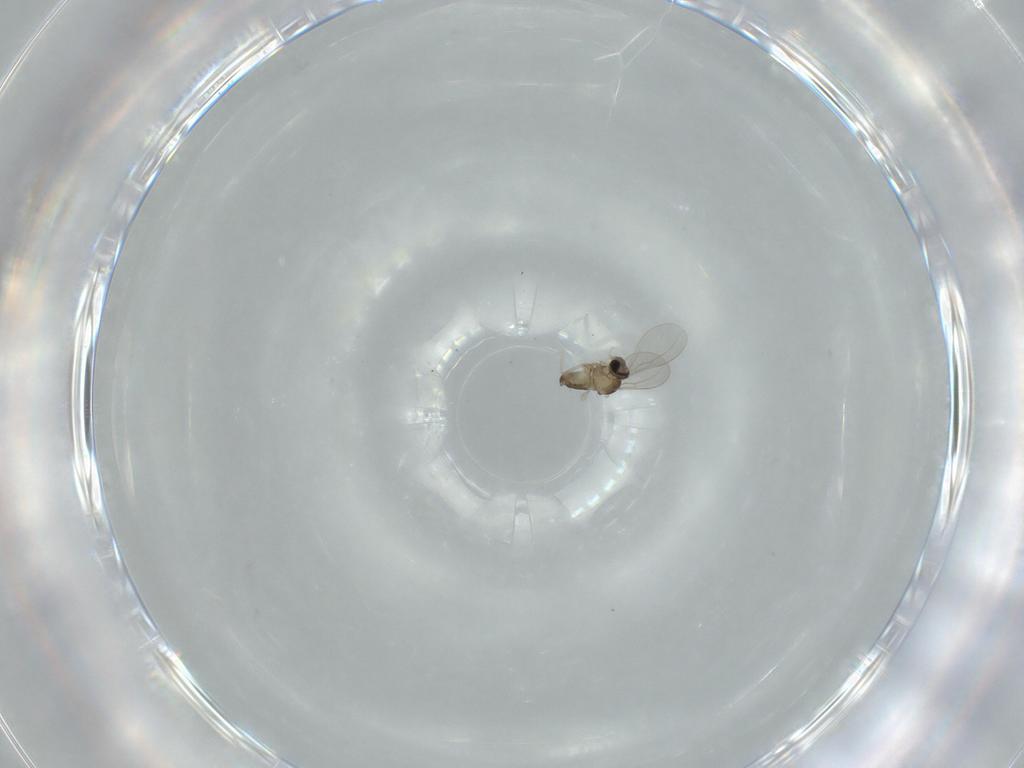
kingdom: Animalia
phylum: Arthropoda
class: Insecta
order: Diptera
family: Cecidomyiidae
